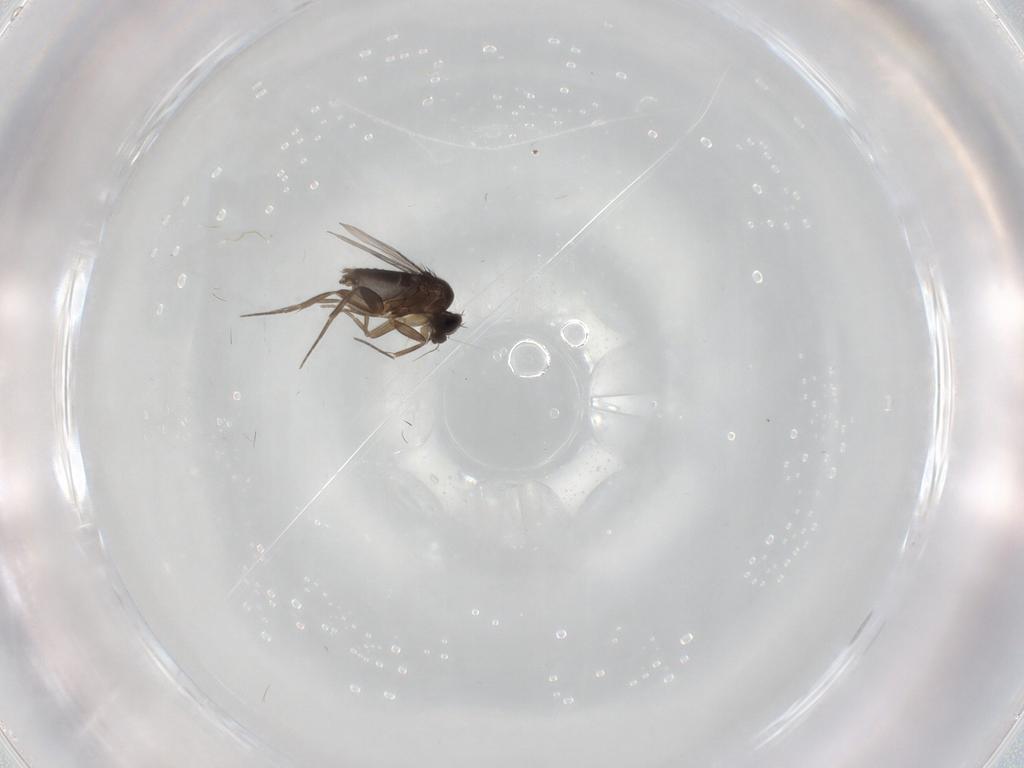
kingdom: Animalia
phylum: Arthropoda
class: Insecta
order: Diptera
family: Phoridae
